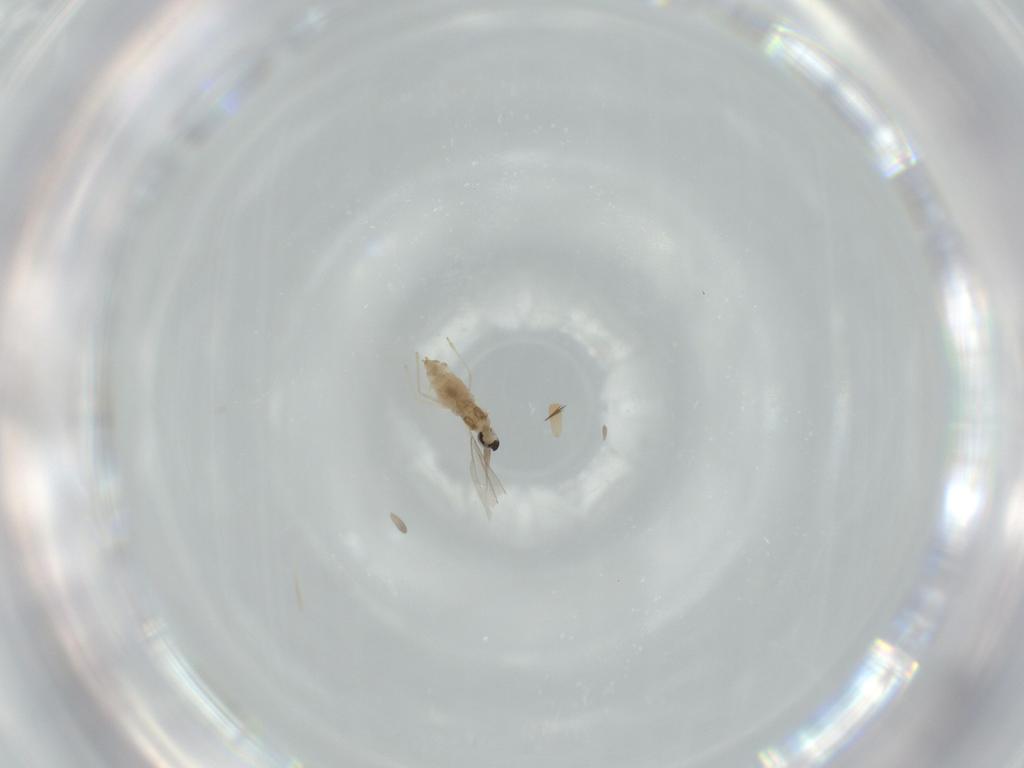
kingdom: Animalia
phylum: Arthropoda
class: Insecta
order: Diptera
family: Cecidomyiidae
